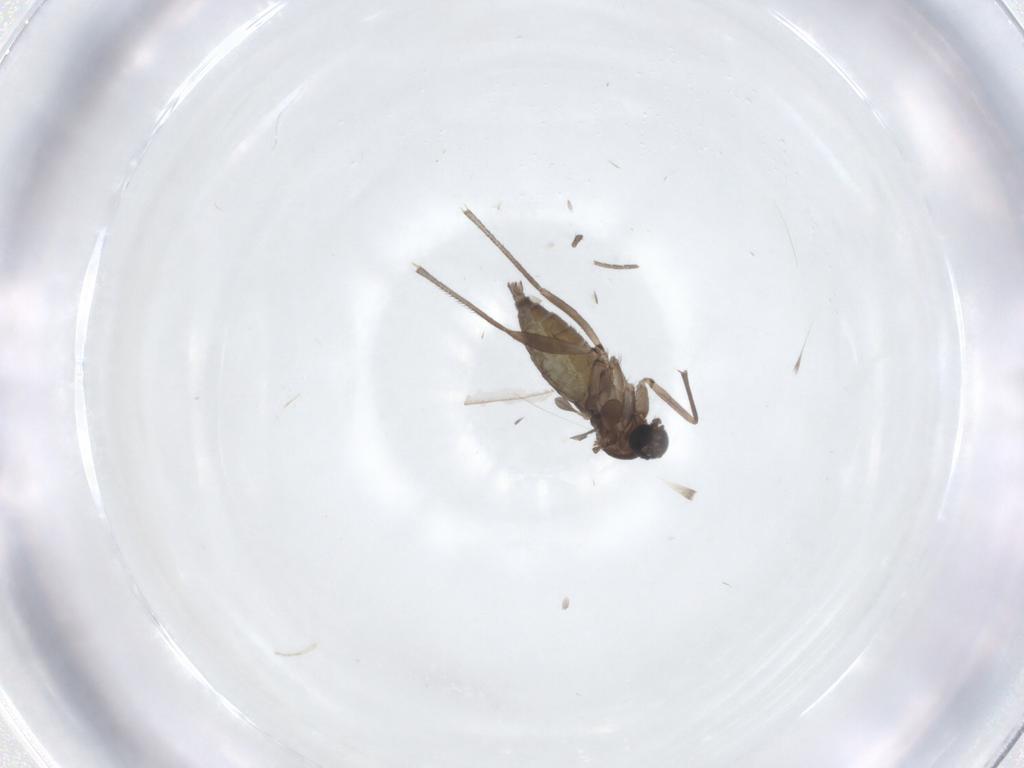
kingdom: Animalia
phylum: Arthropoda
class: Insecta
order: Diptera
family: Sciaridae
